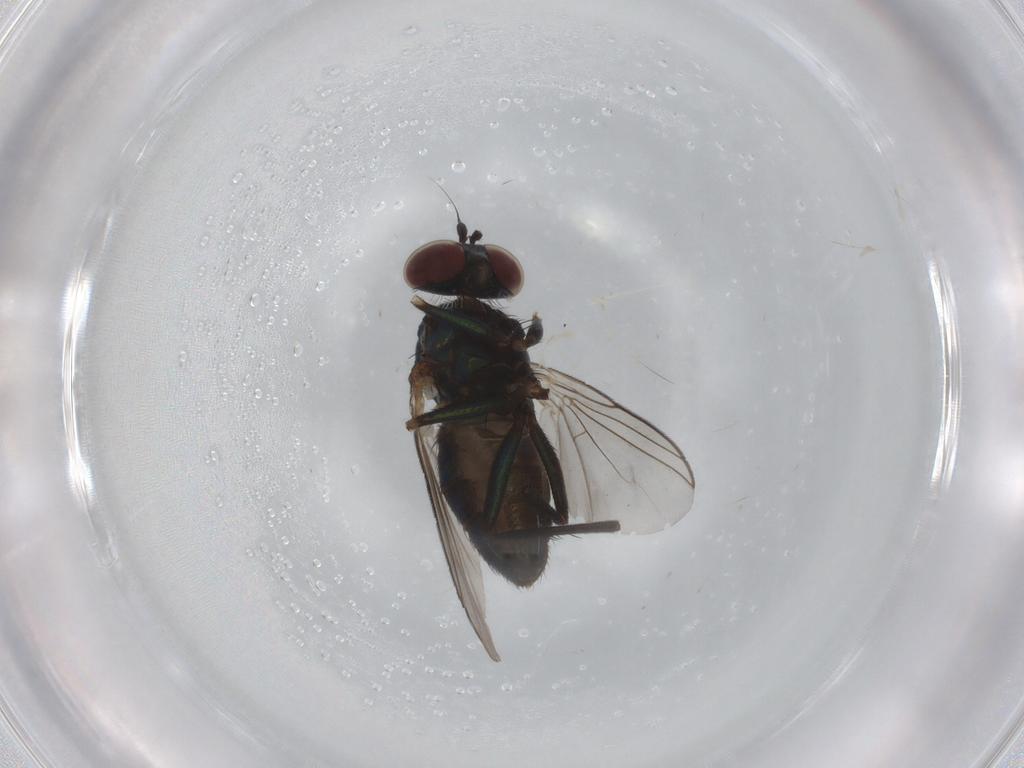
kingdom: Animalia
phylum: Arthropoda
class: Insecta
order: Diptera
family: Dolichopodidae
